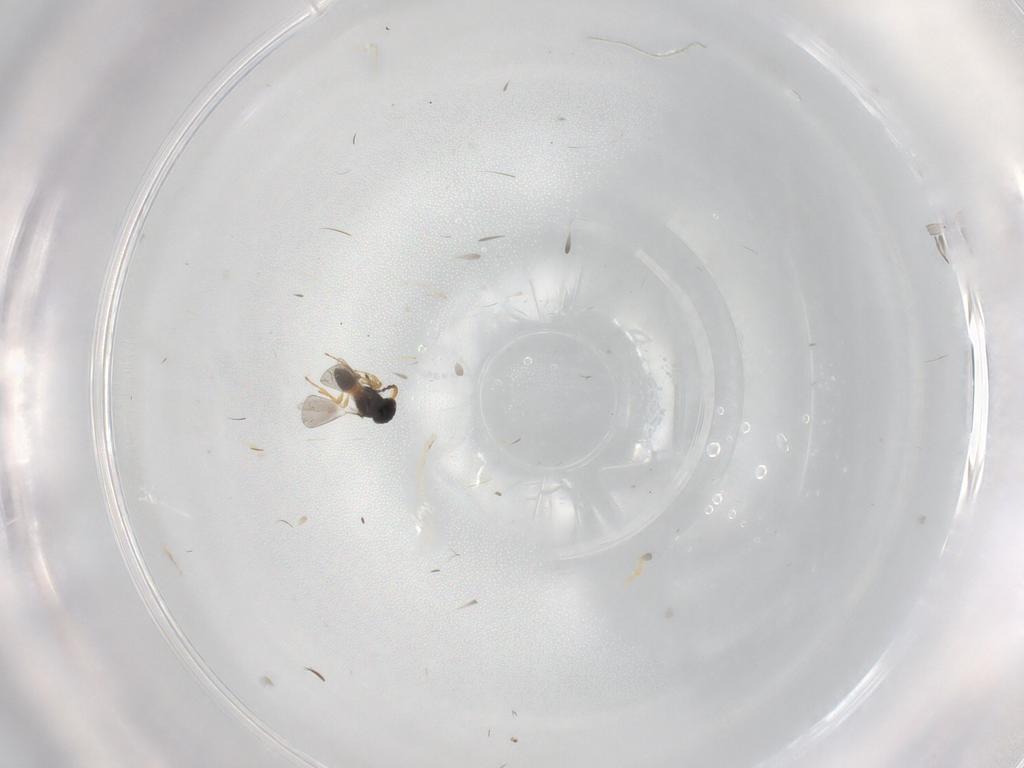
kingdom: Animalia
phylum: Arthropoda
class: Insecta
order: Hymenoptera
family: Platygastridae
